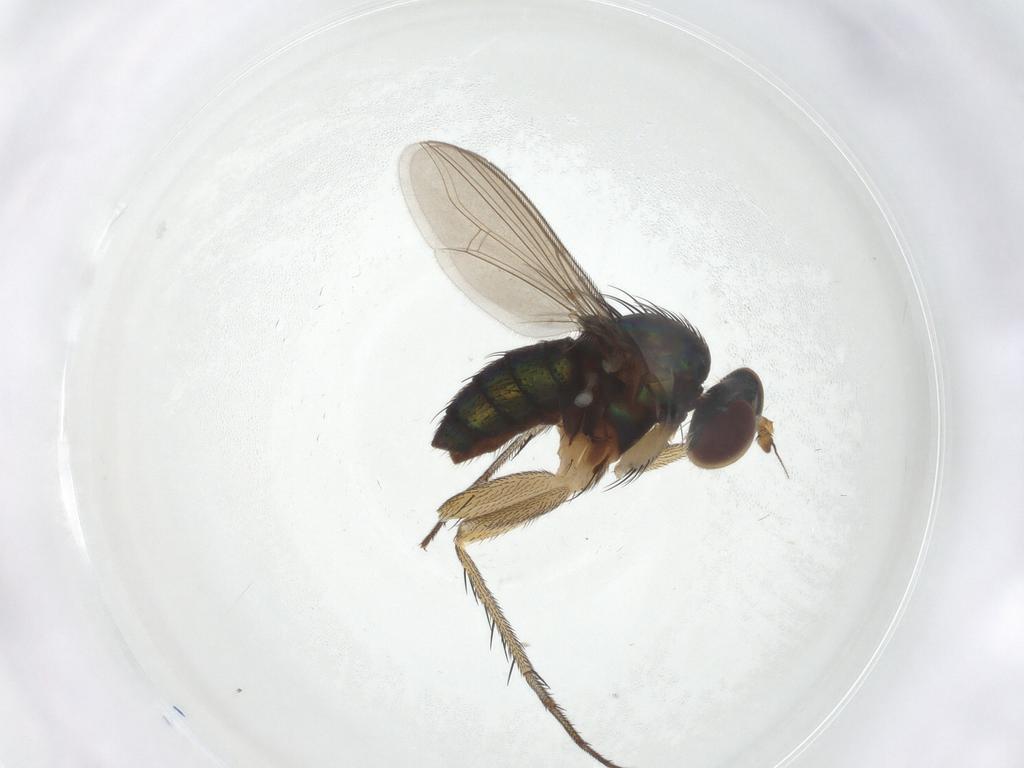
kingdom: Animalia
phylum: Arthropoda
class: Insecta
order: Diptera
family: Dolichopodidae
